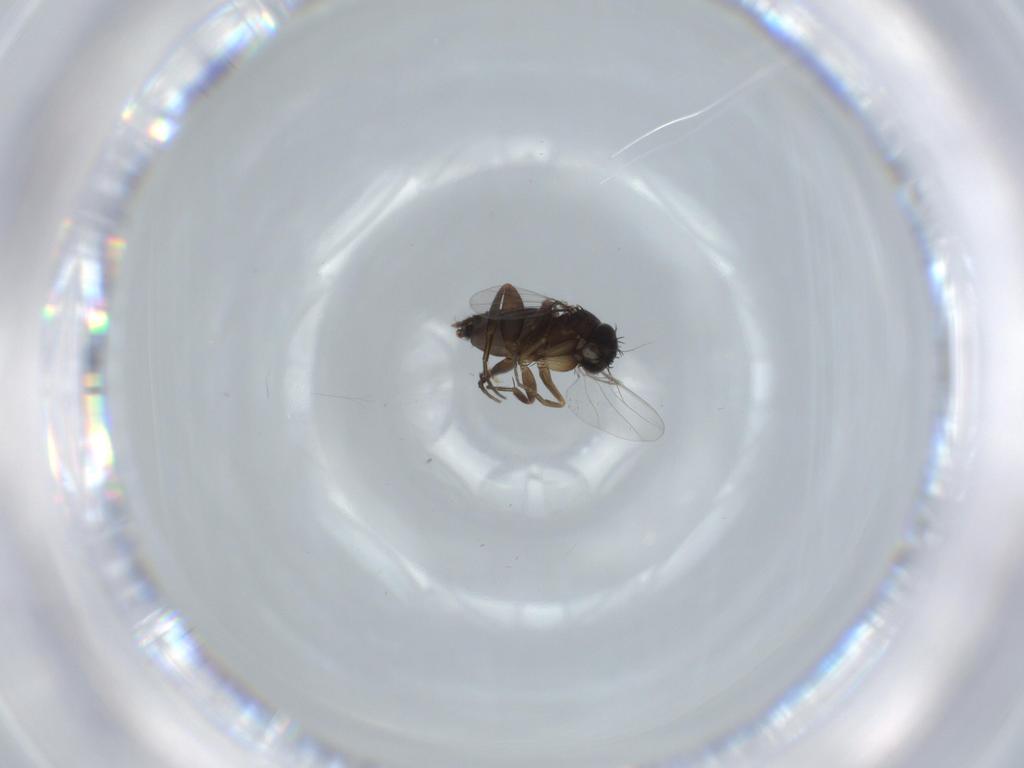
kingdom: Animalia
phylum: Arthropoda
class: Insecta
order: Diptera
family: Phoridae
